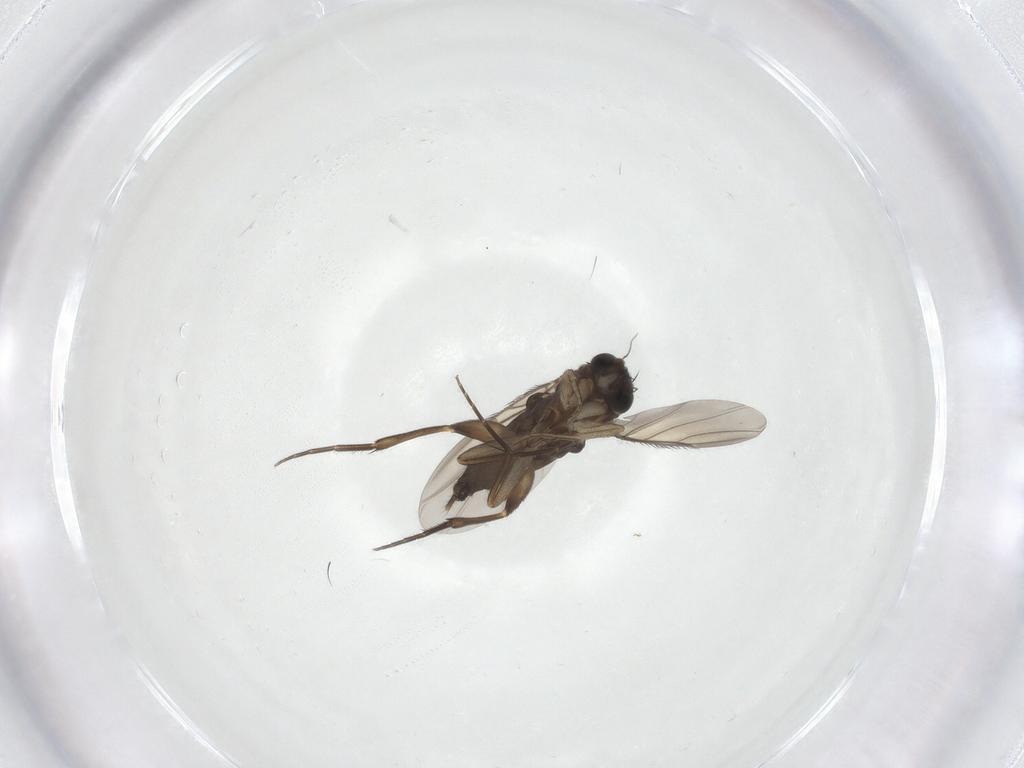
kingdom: Animalia
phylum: Arthropoda
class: Insecta
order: Diptera
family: Phoridae
